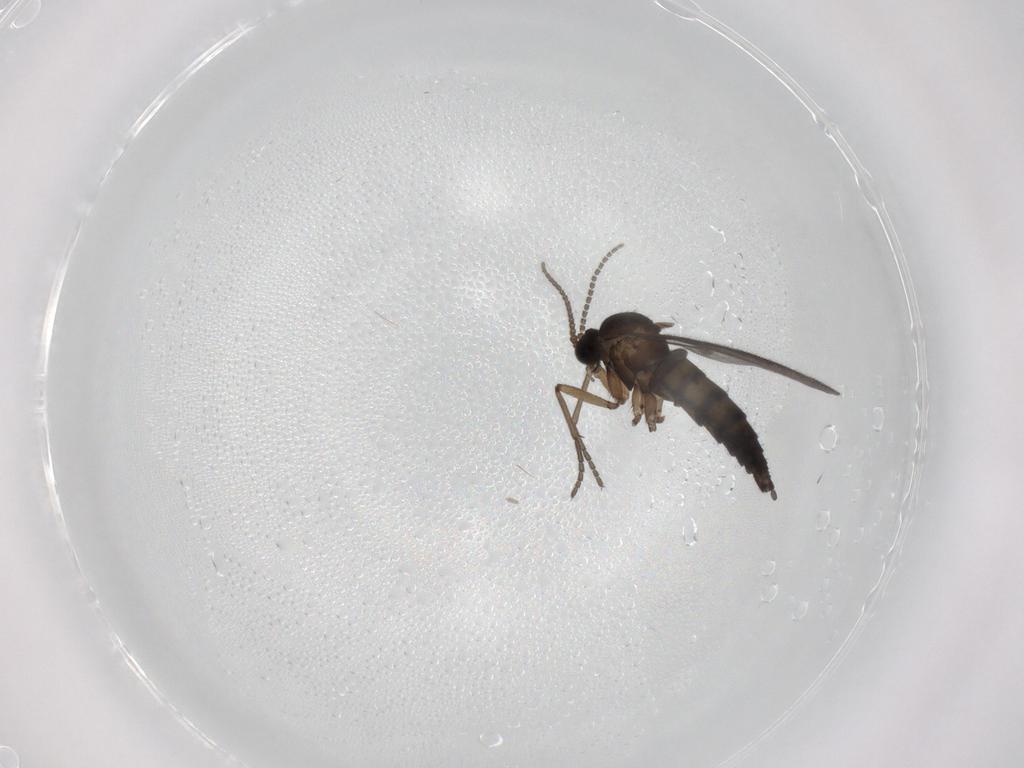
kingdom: Animalia
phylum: Arthropoda
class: Insecta
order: Diptera
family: Sciaridae
